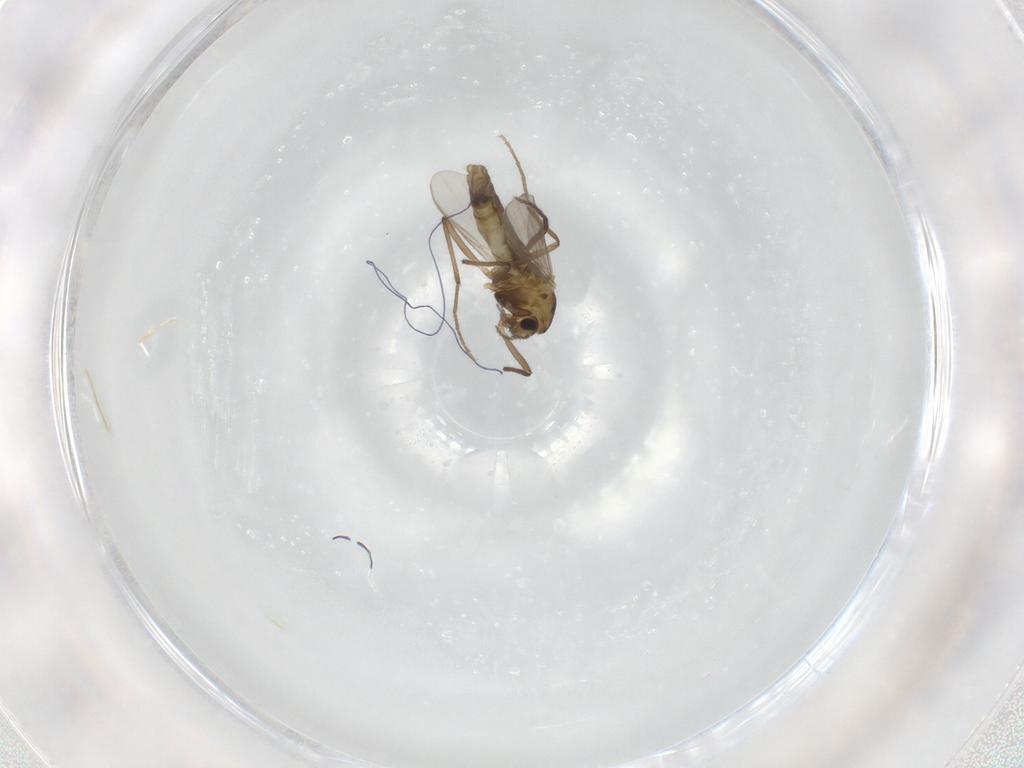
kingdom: Animalia
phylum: Arthropoda
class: Insecta
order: Diptera
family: Chironomidae
